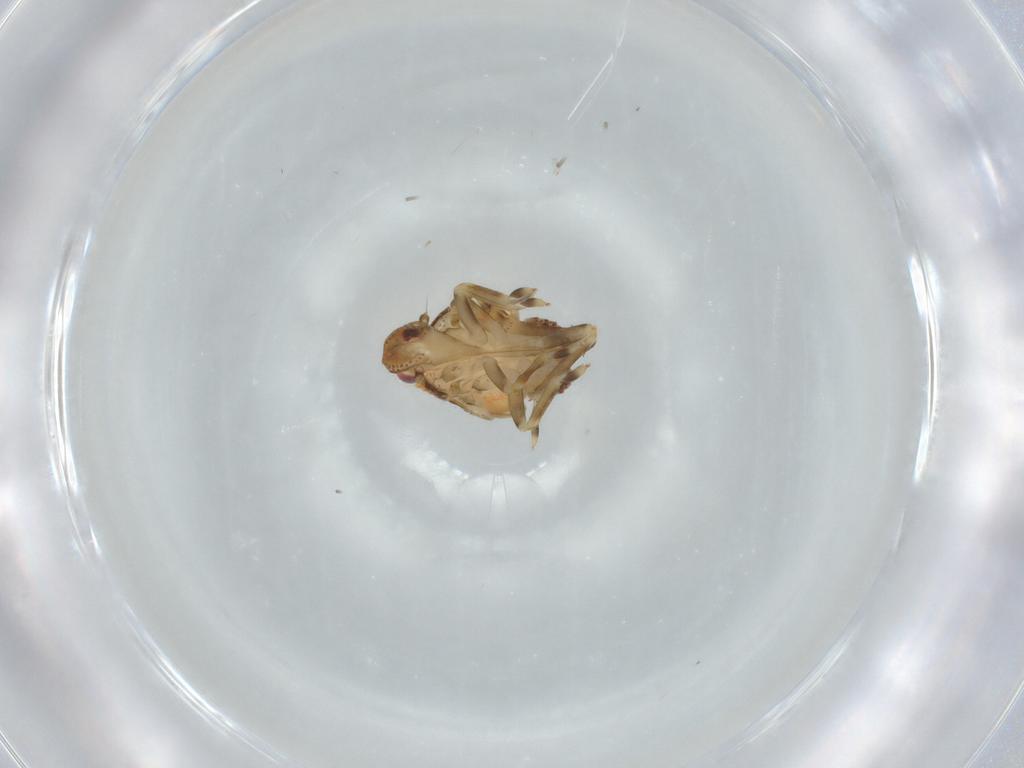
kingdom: Animalia
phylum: Arthropoda
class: Insecta
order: Hemiptera
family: Flatidae
